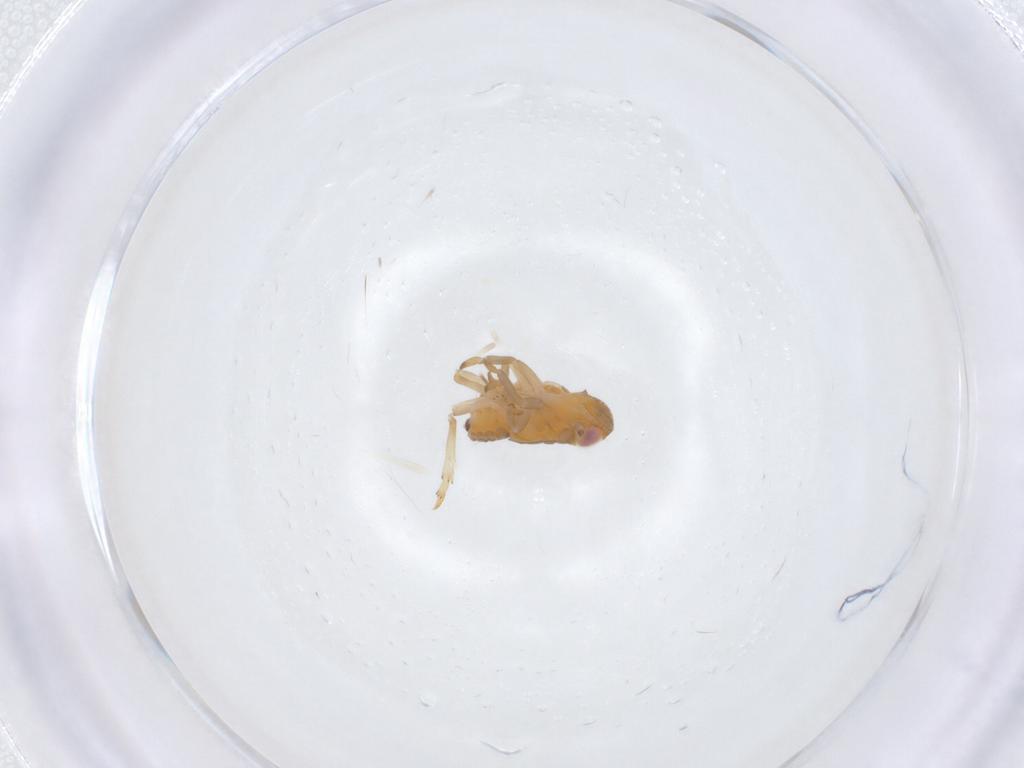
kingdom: Animalia
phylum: Arthropoda
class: Insecta
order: Hemiptera
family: Fulgoroidea_incertae_sedis
